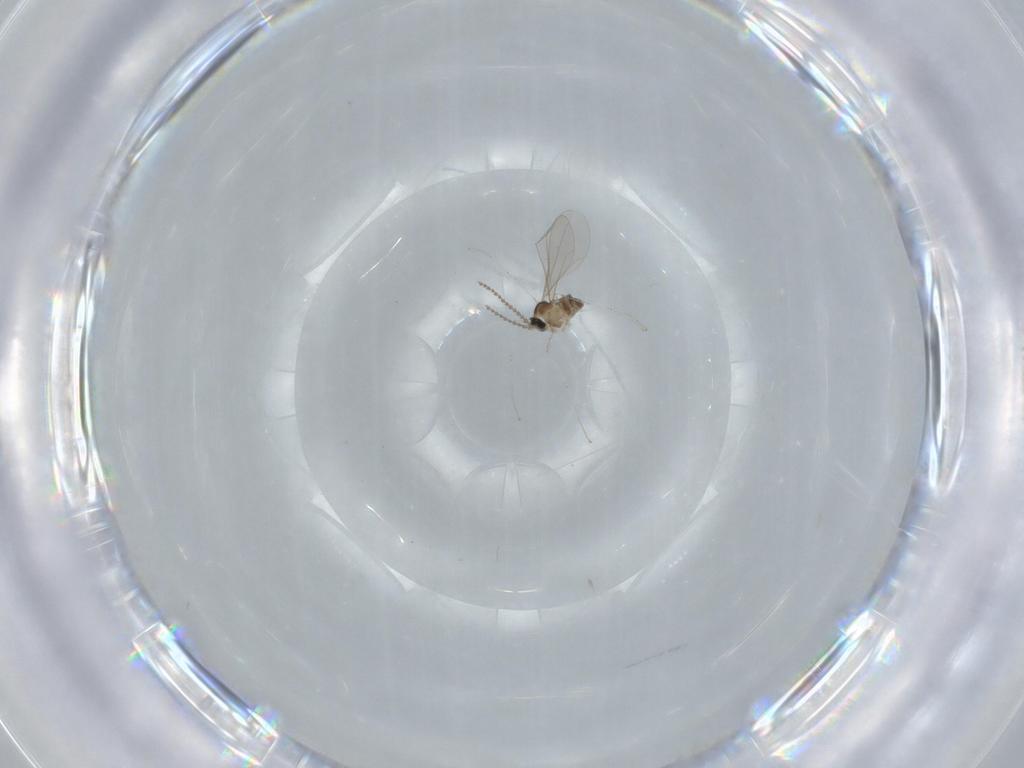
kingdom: Animalia
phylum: Arthropoda
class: Insecta
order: Diptera
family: Cecidomyiidae
